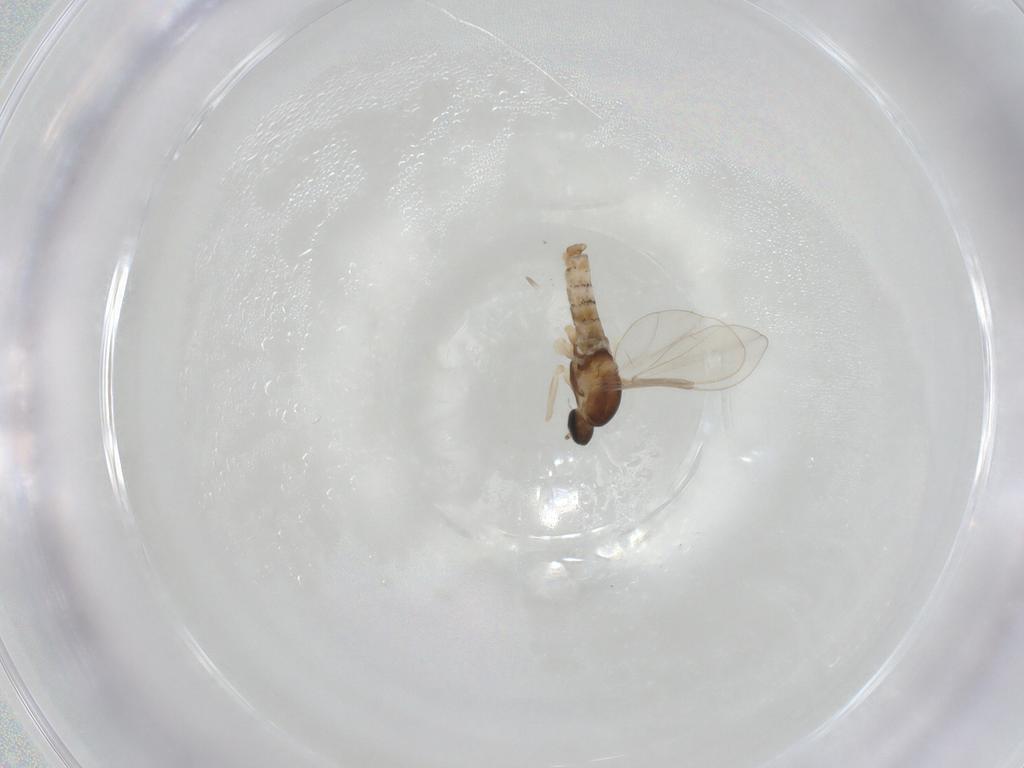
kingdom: Animalia
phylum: Arthropoda
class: Insecta
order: Diptera
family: Cecidomyiidae
